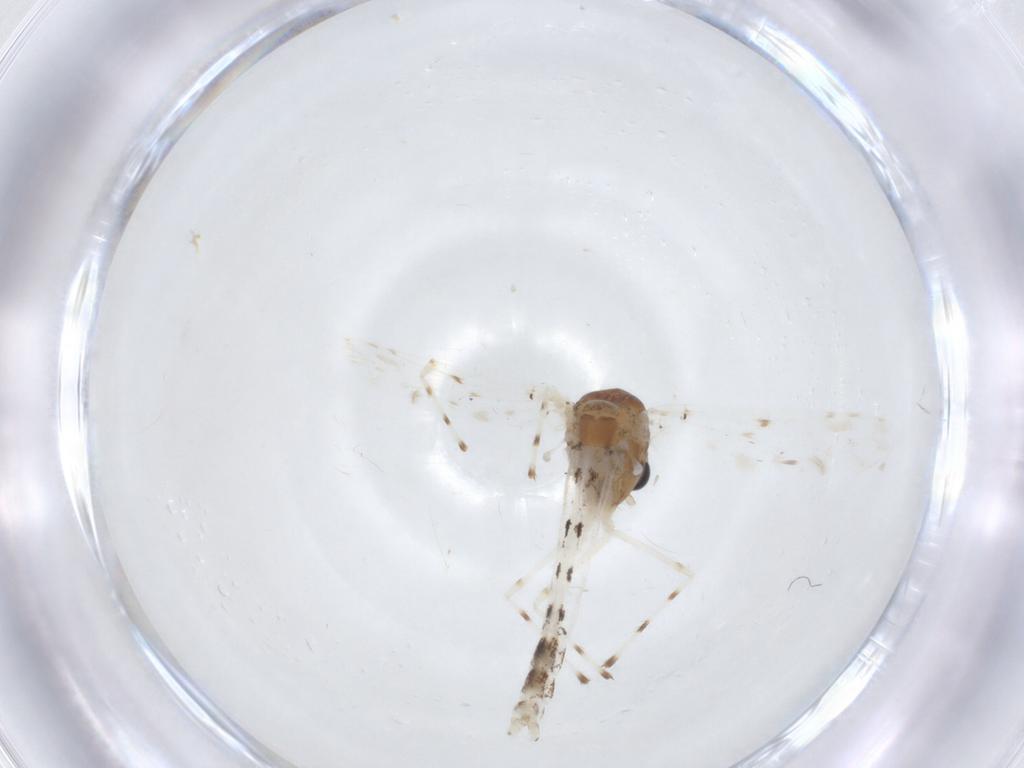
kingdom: Animalia
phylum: Arthropoda
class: Insecta
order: Diptera
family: Chironomidae
